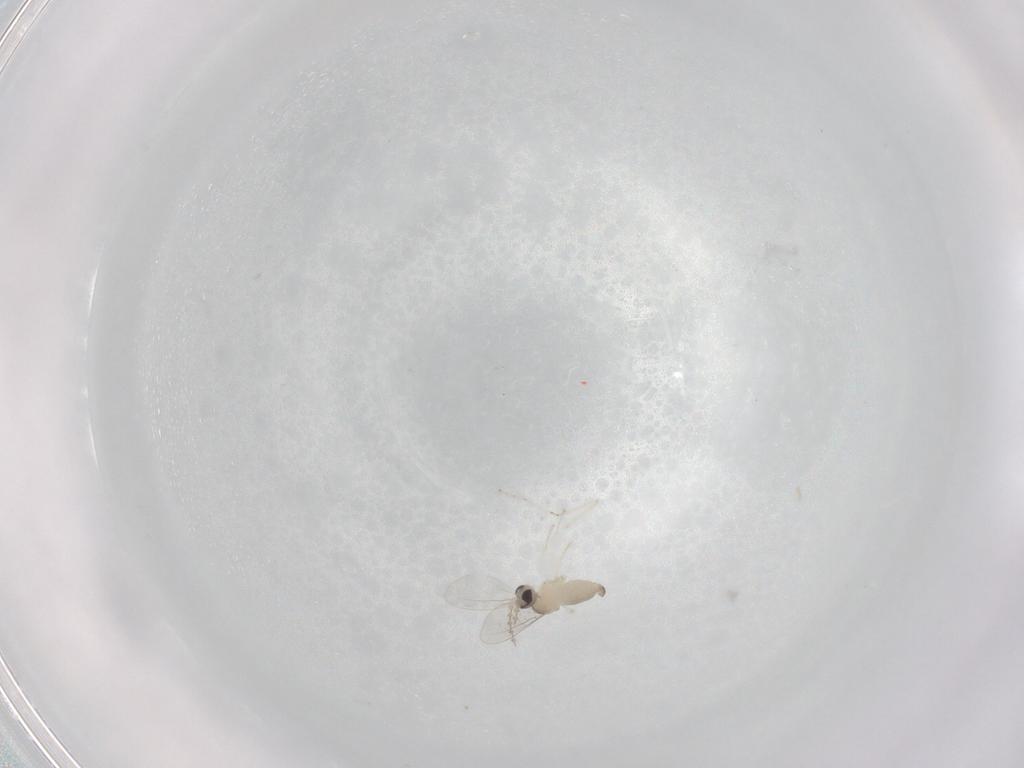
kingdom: Animalia
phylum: Arthropoda
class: Insecta
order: Diptera
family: Cecidomyiidae
